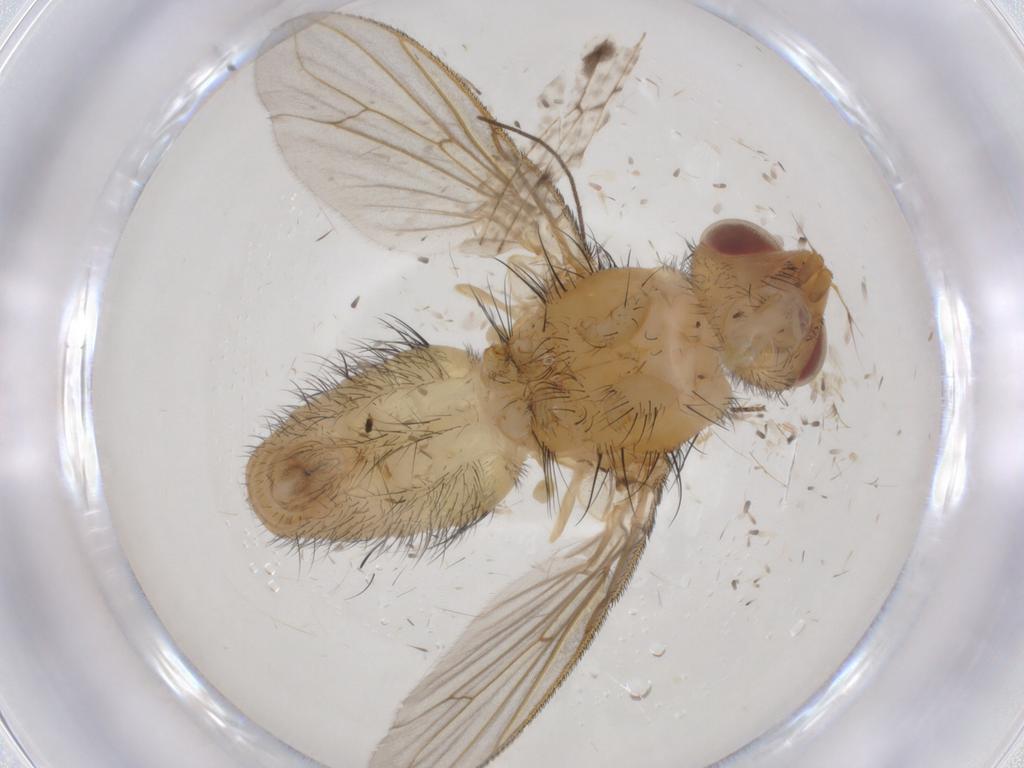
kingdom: Animalia
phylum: Arthropoda
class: Insecta
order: Diptera
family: Tachinidae
